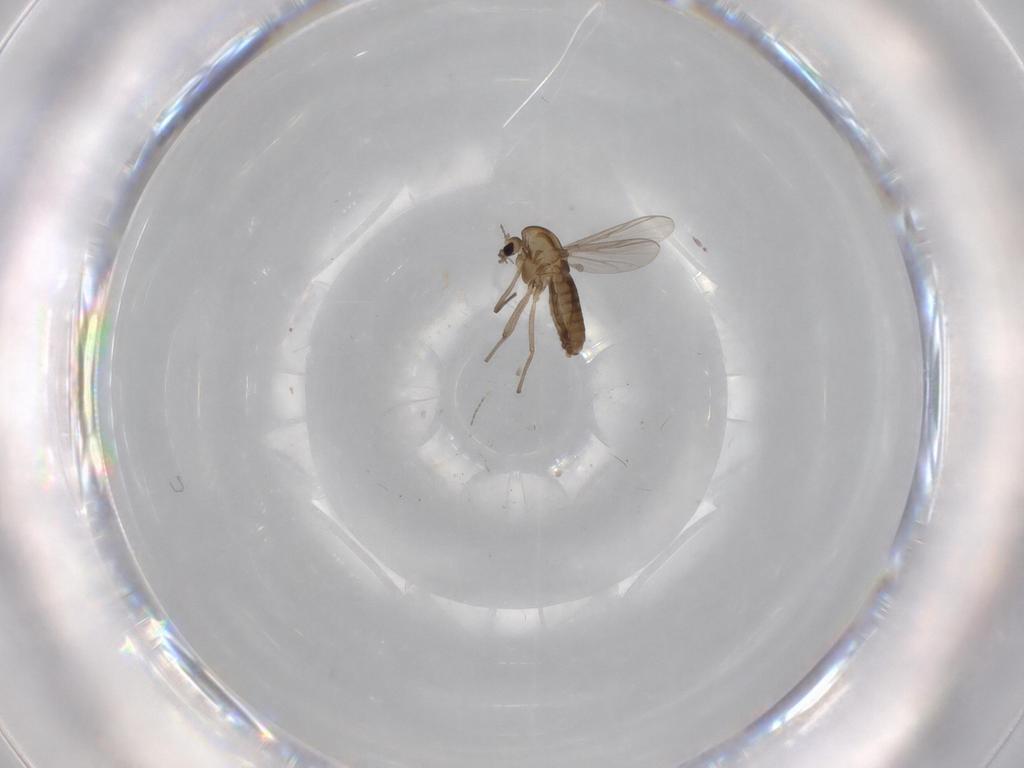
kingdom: Animalia
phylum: Arthropoda
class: Insecta
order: Diptera
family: Chironomidae
